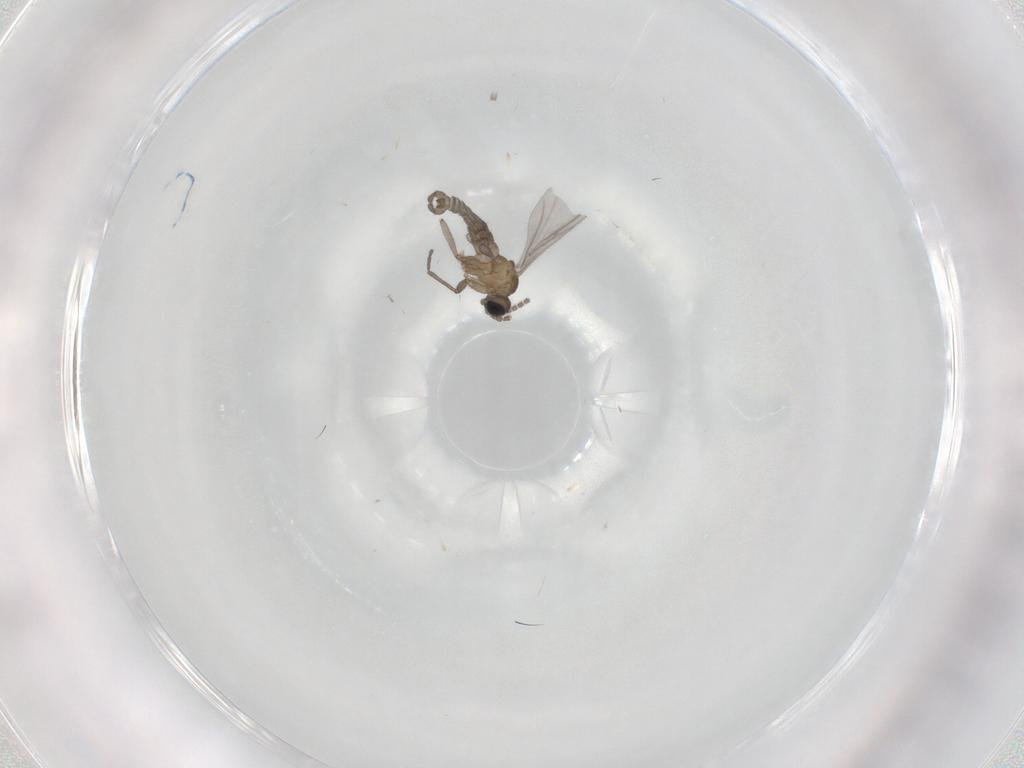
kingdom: Animalia
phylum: Arthropoda
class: Insecta
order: Diptera
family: Sciaridae
